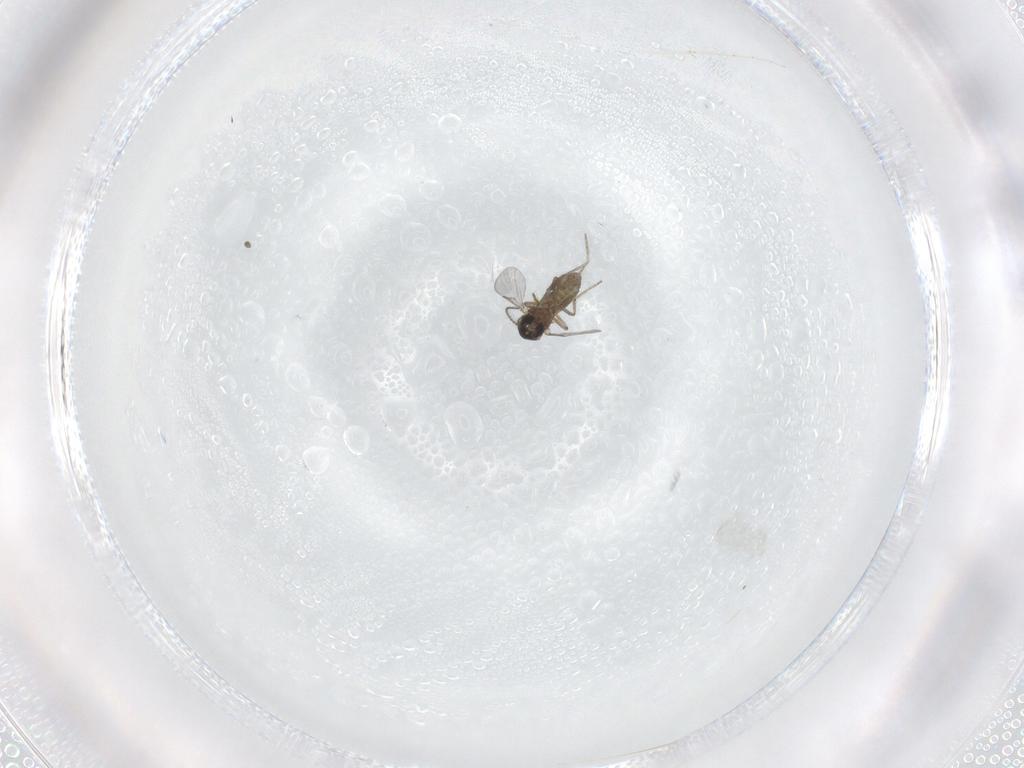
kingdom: Animalia
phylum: Arthropoda
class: Insecta
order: Diptera
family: Ceratopogonidae
